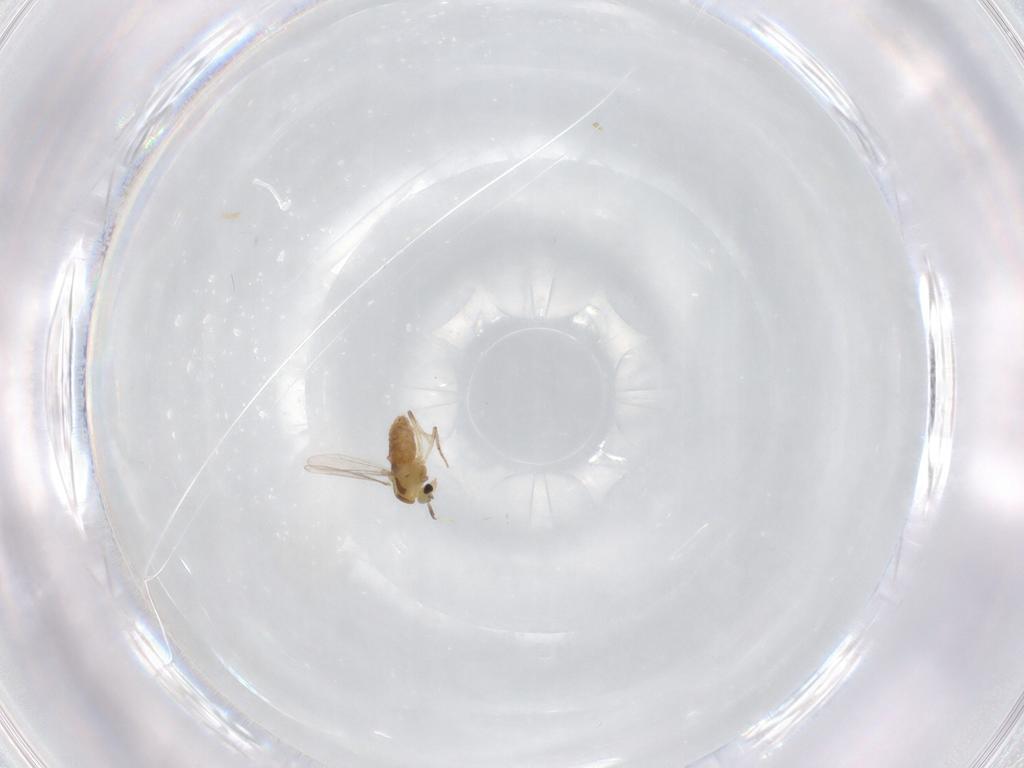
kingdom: Animalia
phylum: Arthropoda
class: Insecta
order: Diptera
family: Chironomidae
